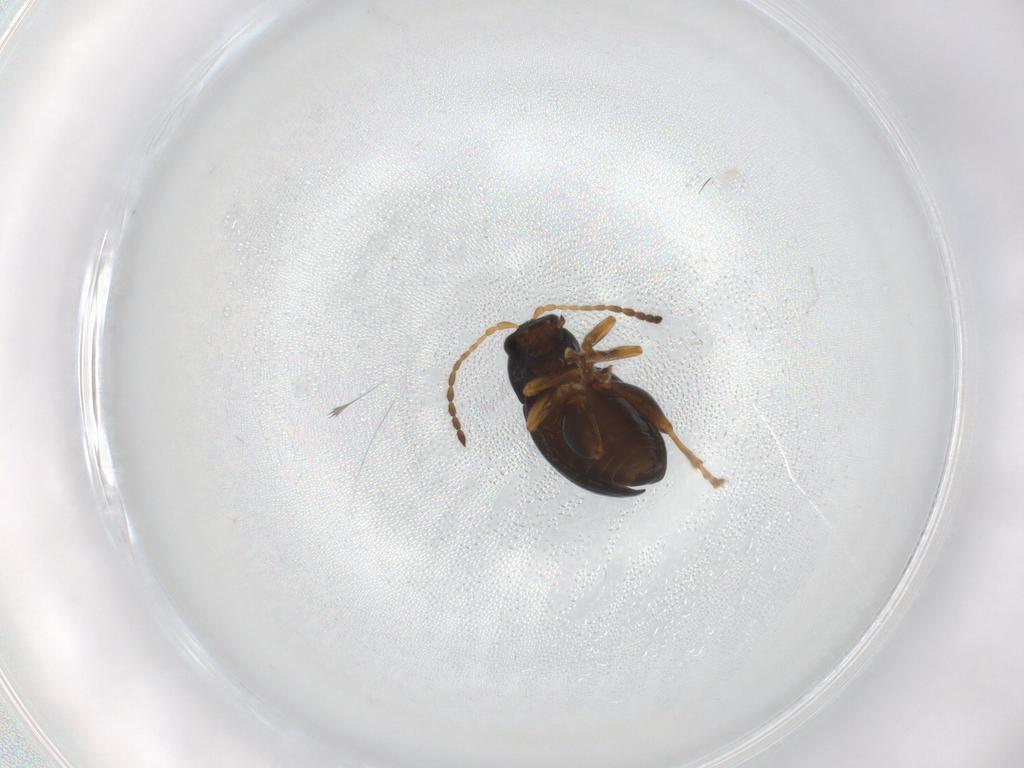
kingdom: Animalia
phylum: Arthropoda
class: Insecta
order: Coleoptera
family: Chrysomelidae
